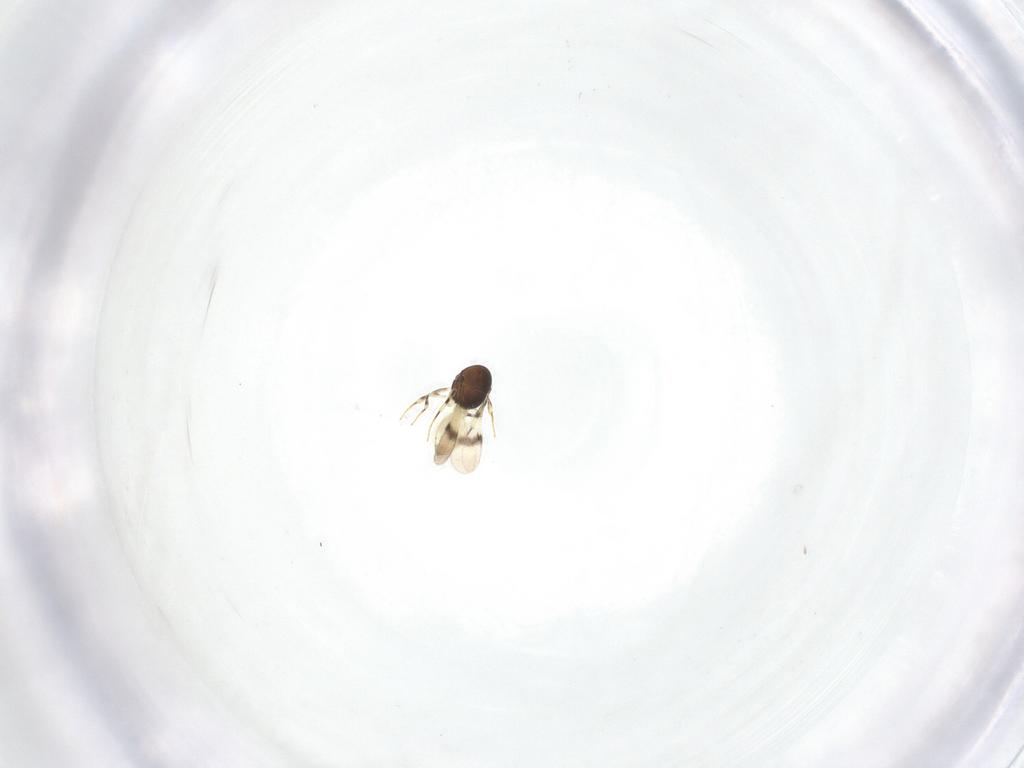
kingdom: Animalia
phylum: Arthropoda
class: Insecta
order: Hymenoptera
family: Scelionidae
